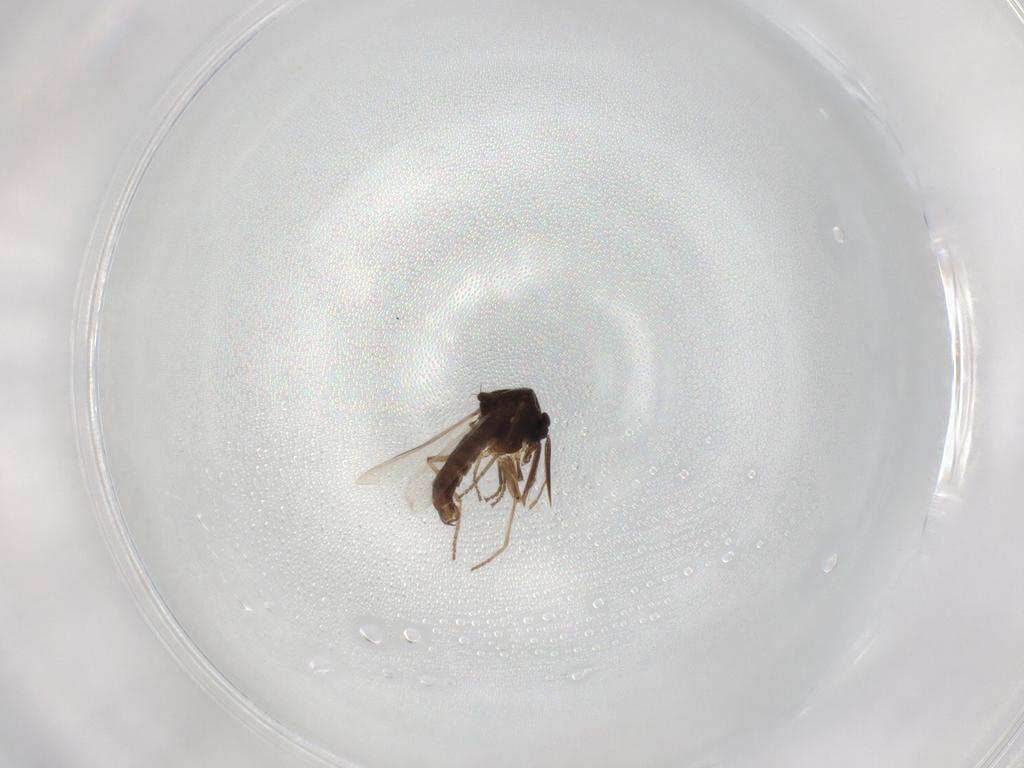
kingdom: Animalia
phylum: Arthropoda
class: Insecta
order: Diptera
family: Ceratopogonidae
